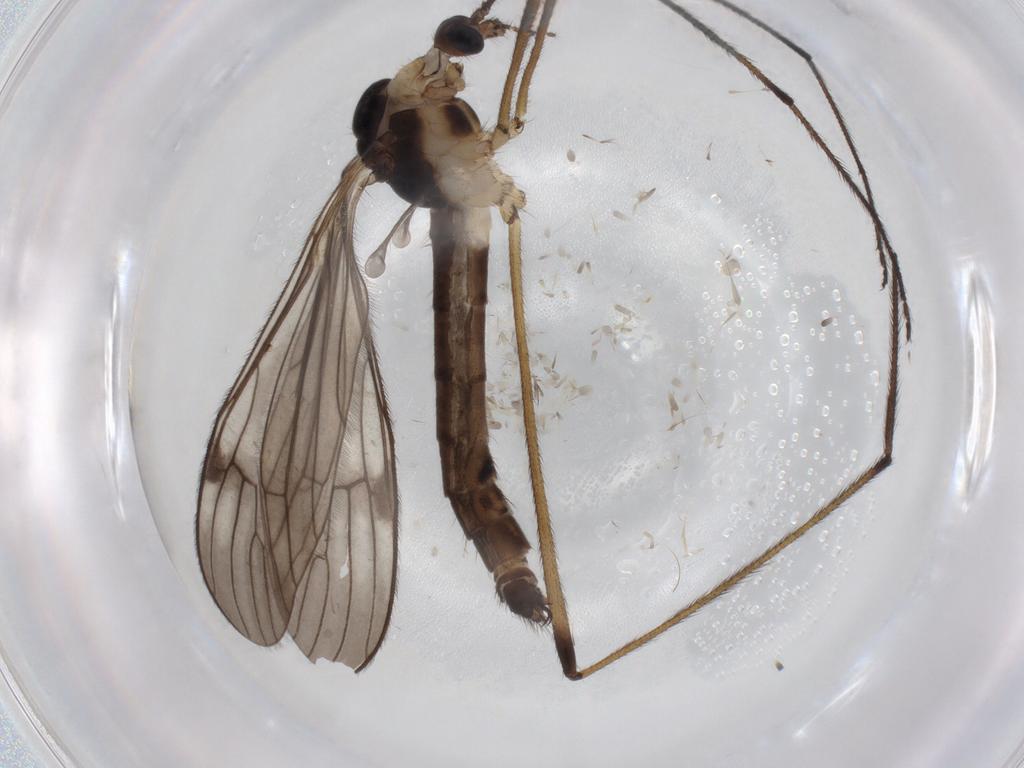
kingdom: Animalia
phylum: Arthropoda
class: Insecta
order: Diptera
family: Limoniidae
